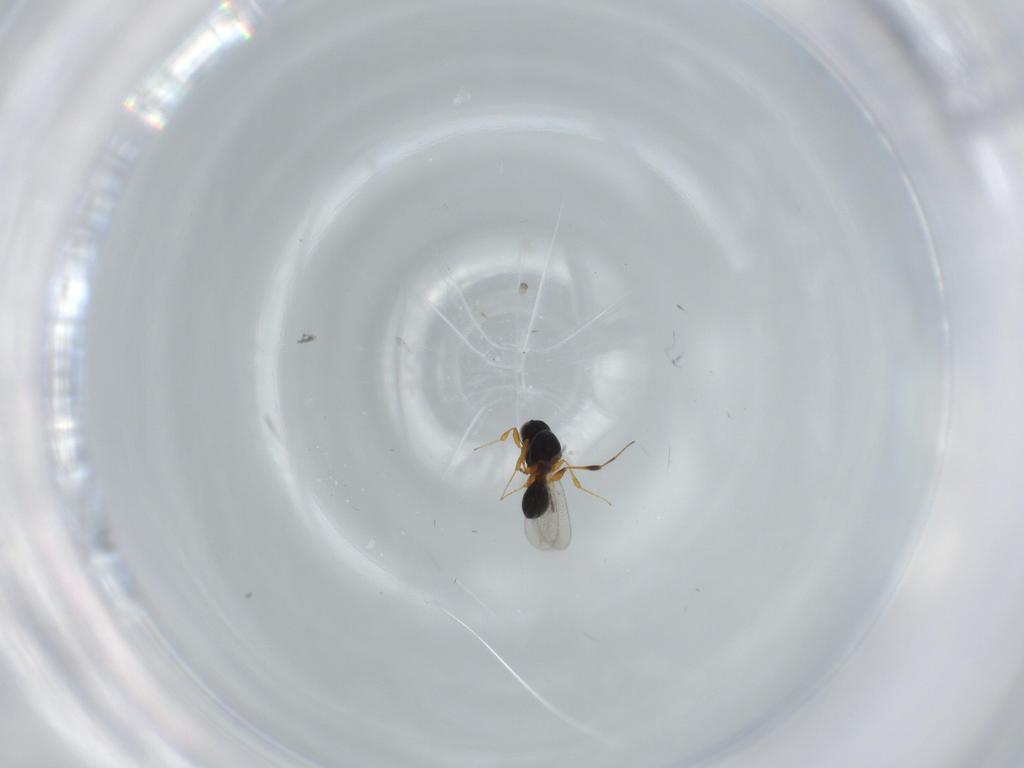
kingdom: Animalia
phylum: Arthropoda
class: Insecta
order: Hymenoptera
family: Platygastridae
